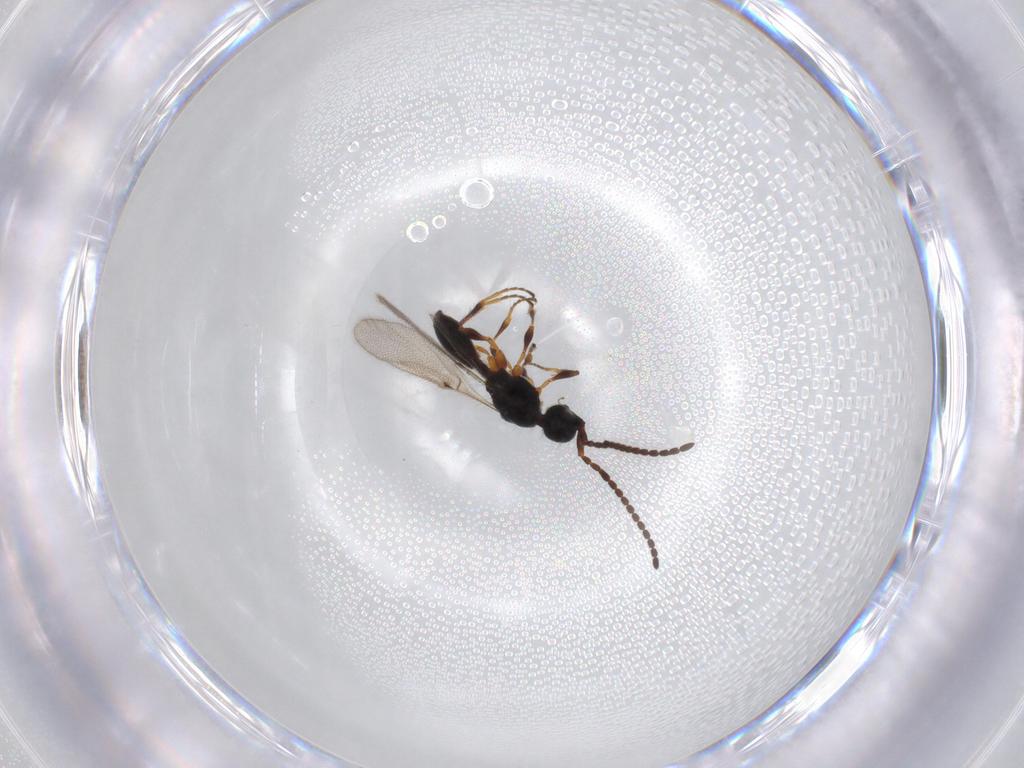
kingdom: Animalia
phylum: Arthropoda
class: Insecta
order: Hymenoptera
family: Diapriidae
